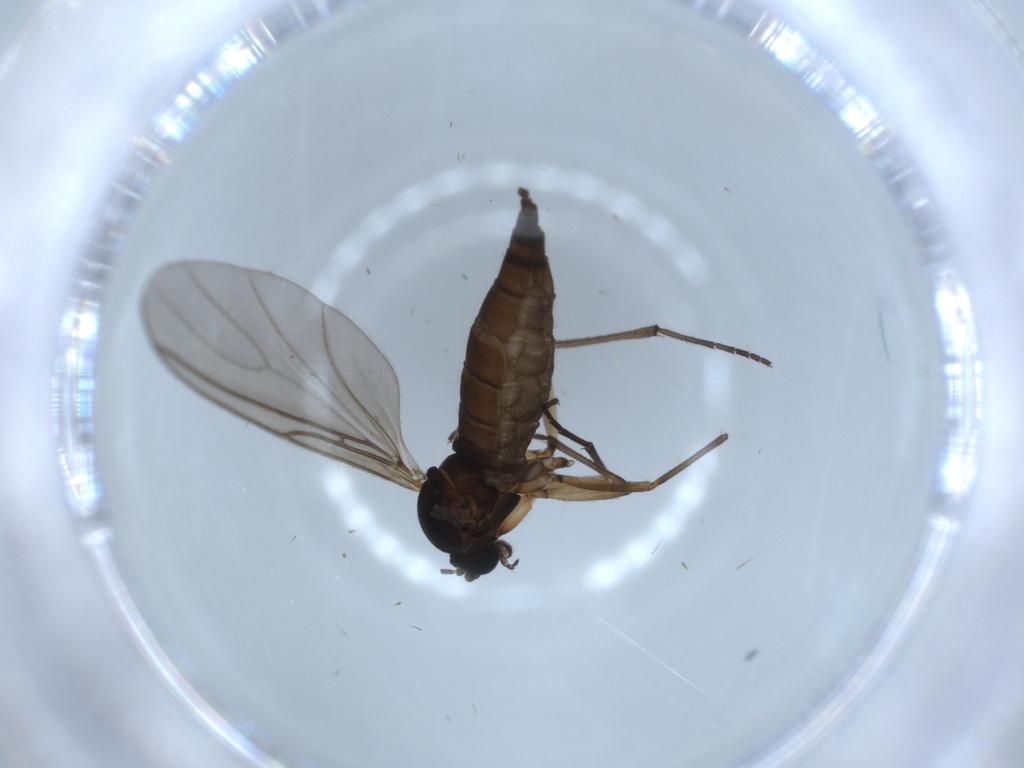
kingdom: Animalia
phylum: Arthropoda
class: Insecta
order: Diptera
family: Sciaridae
